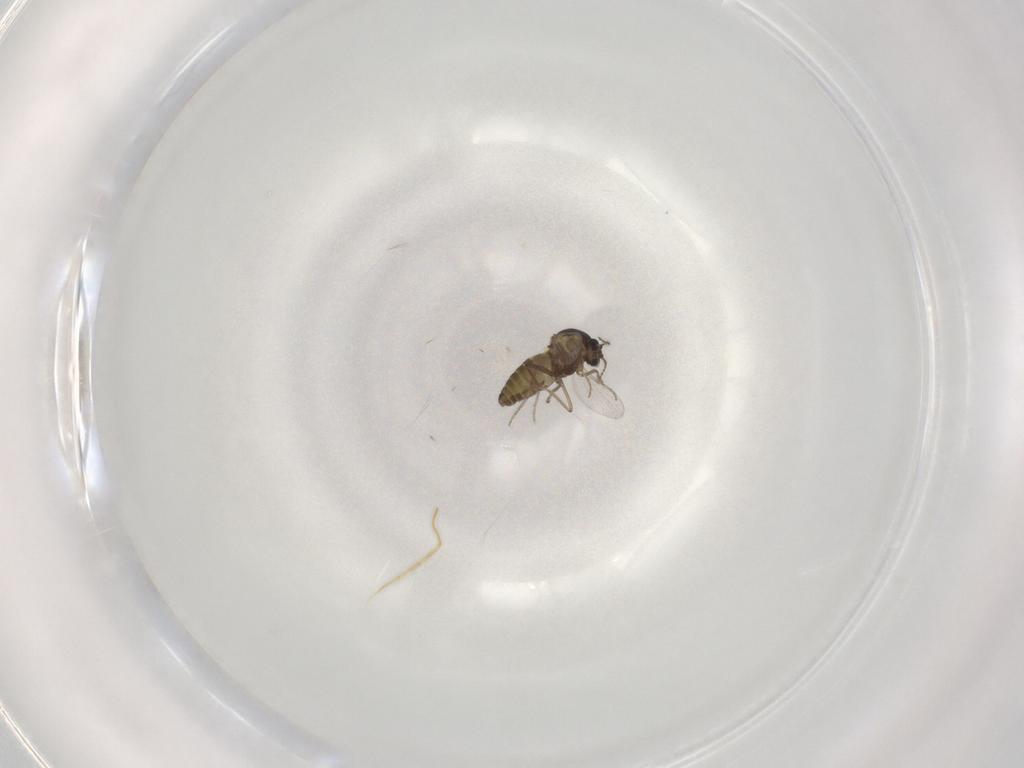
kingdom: Animalia
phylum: Arthropoda
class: Insecta
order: Diptera
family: Ceratopogonidae
